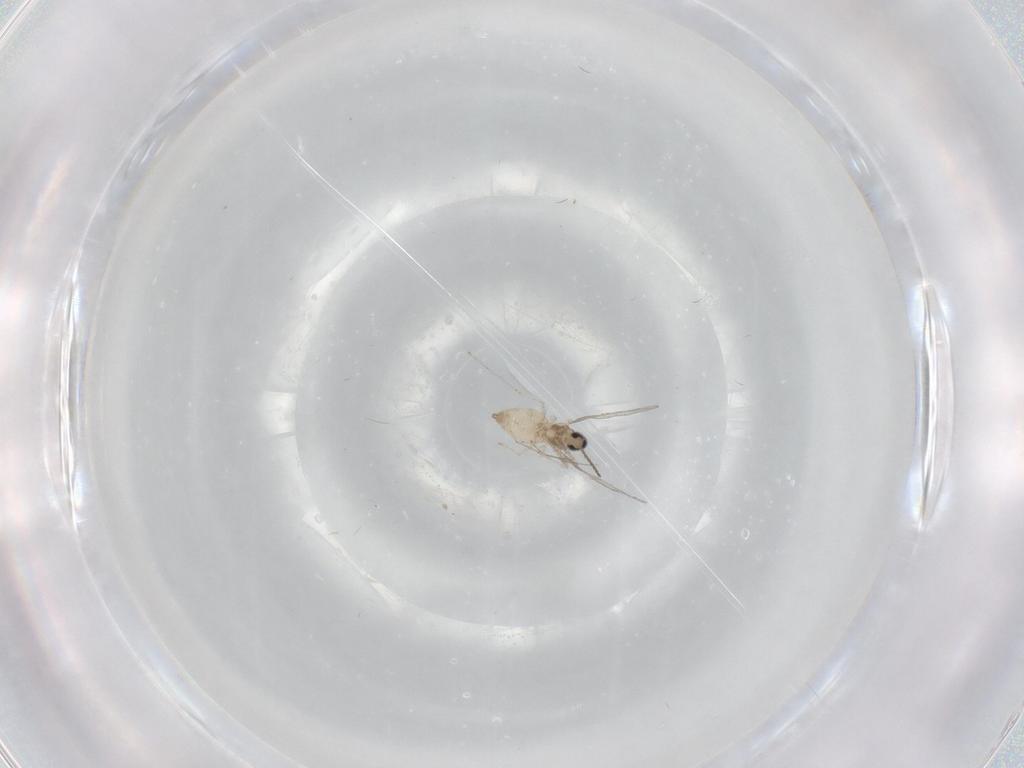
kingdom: Animalia
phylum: Arthropoda
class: Insecta
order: Diptera
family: Cecidomyiidae
